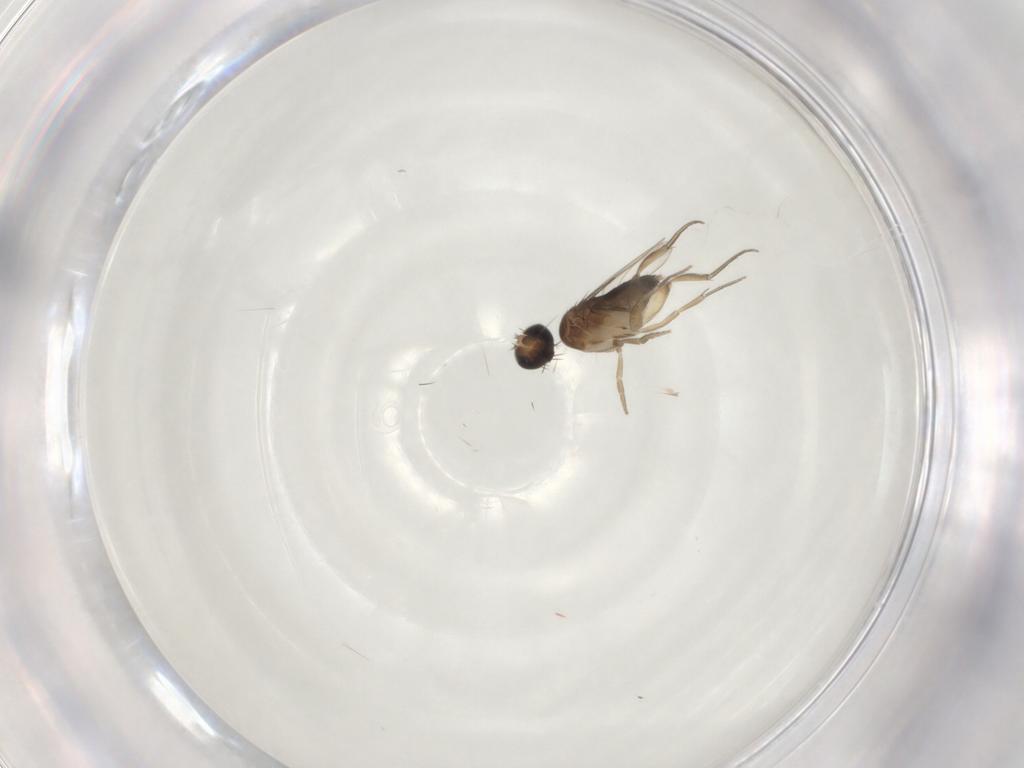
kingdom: Animalia
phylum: Arthropoda
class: Insecta
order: Diptera
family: Phoridae
